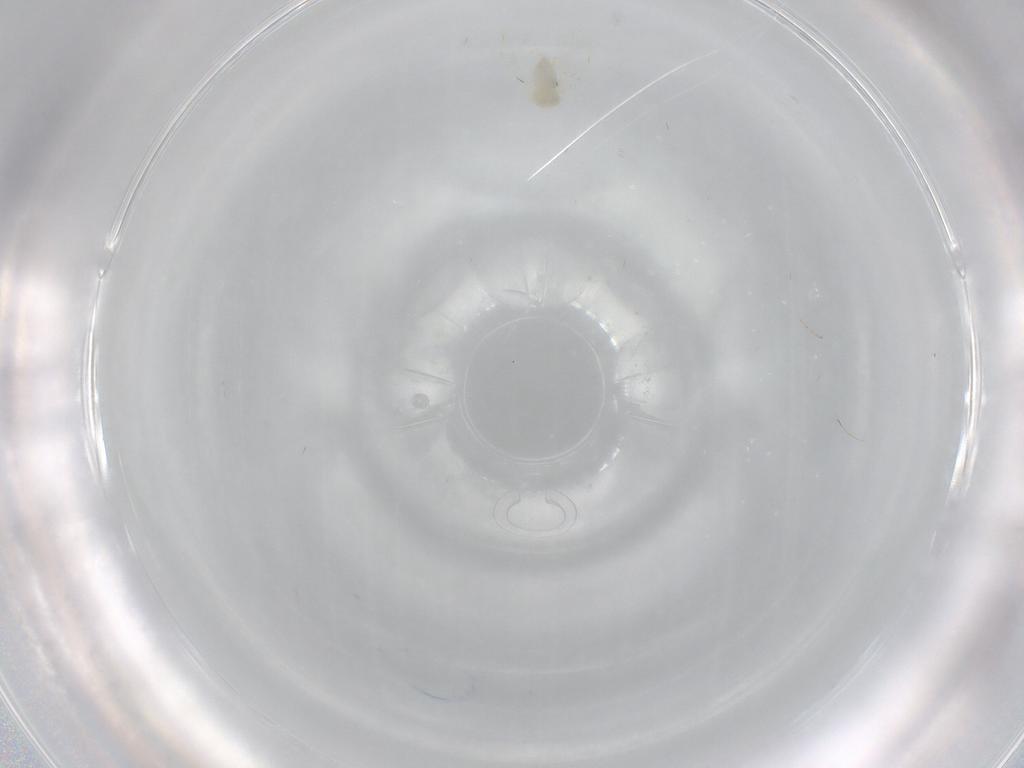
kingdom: Animalia
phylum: Arthropoda
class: Insecta
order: Diptera
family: Cecidomyiidae
